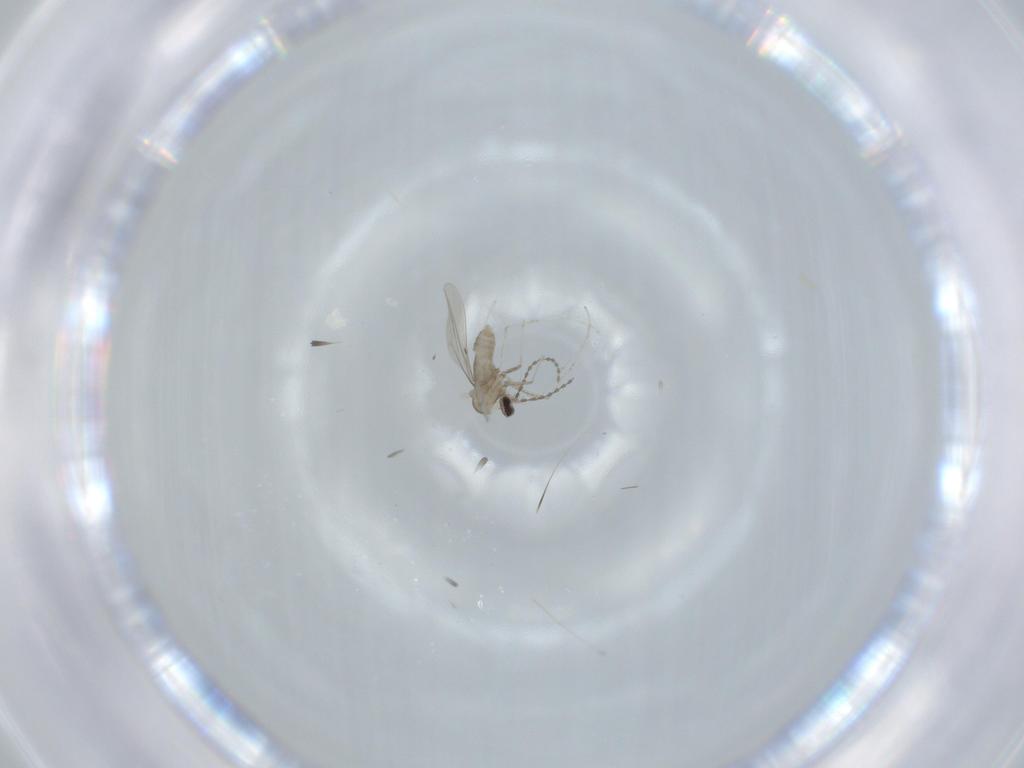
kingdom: Animalia
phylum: Arthropoda
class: Insecta
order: Diptera
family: Cecidomyiidae
